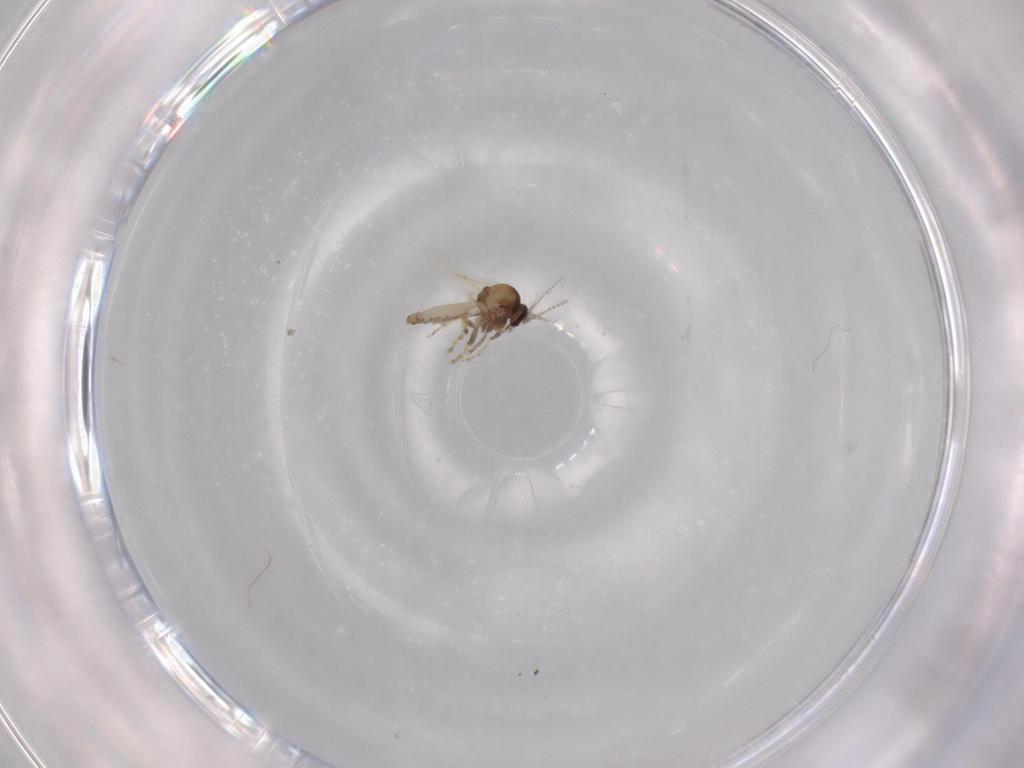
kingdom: Animalia
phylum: Arthropoda
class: Insecta
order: Diptera
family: Ceratopogonidae
